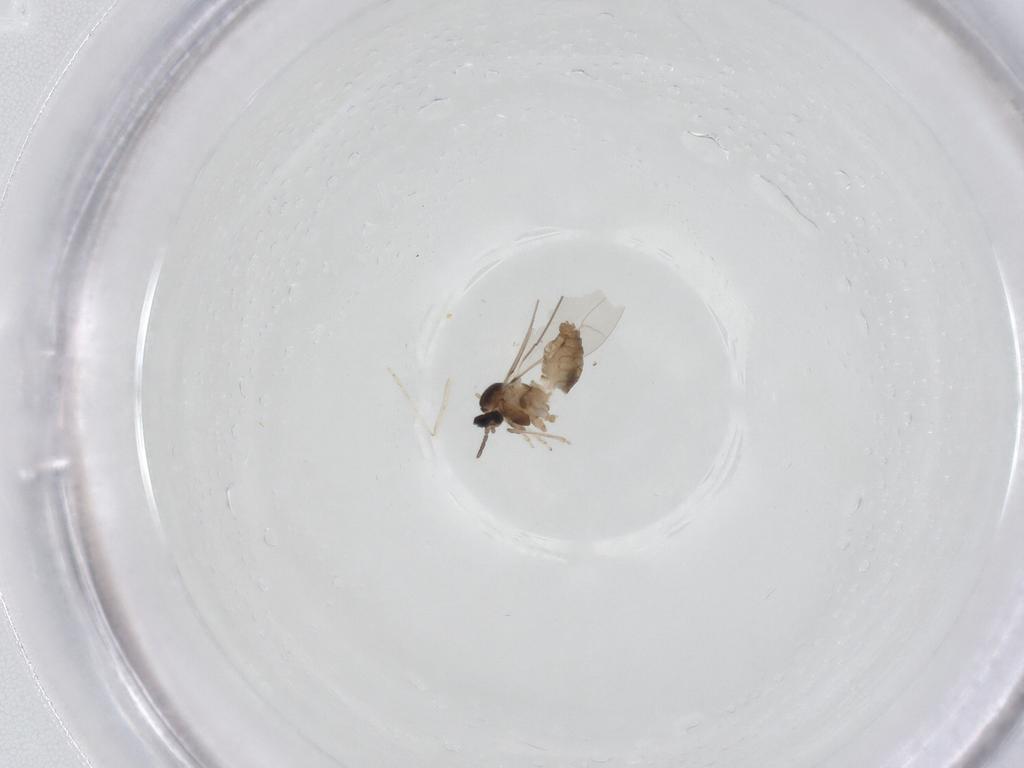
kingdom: Animalia
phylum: Arthropoda
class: Insecta
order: Diptera
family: Cecidomyiidae
